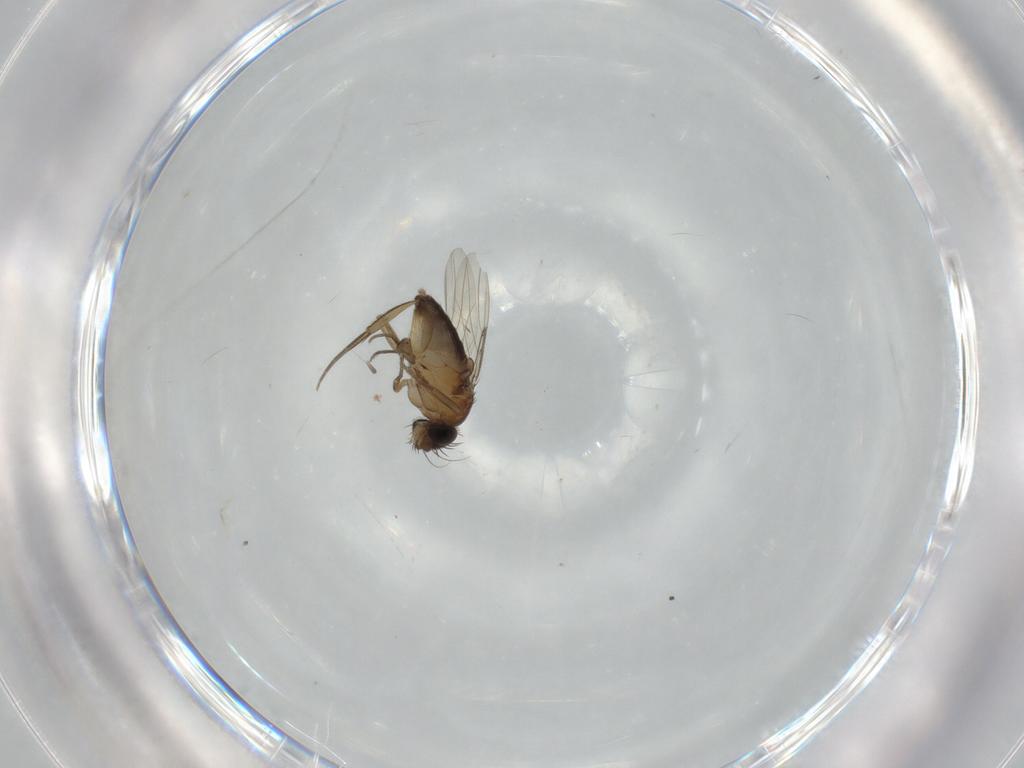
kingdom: Animalia
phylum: Arthropoda
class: Insecta
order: Diptera
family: Phoridae
